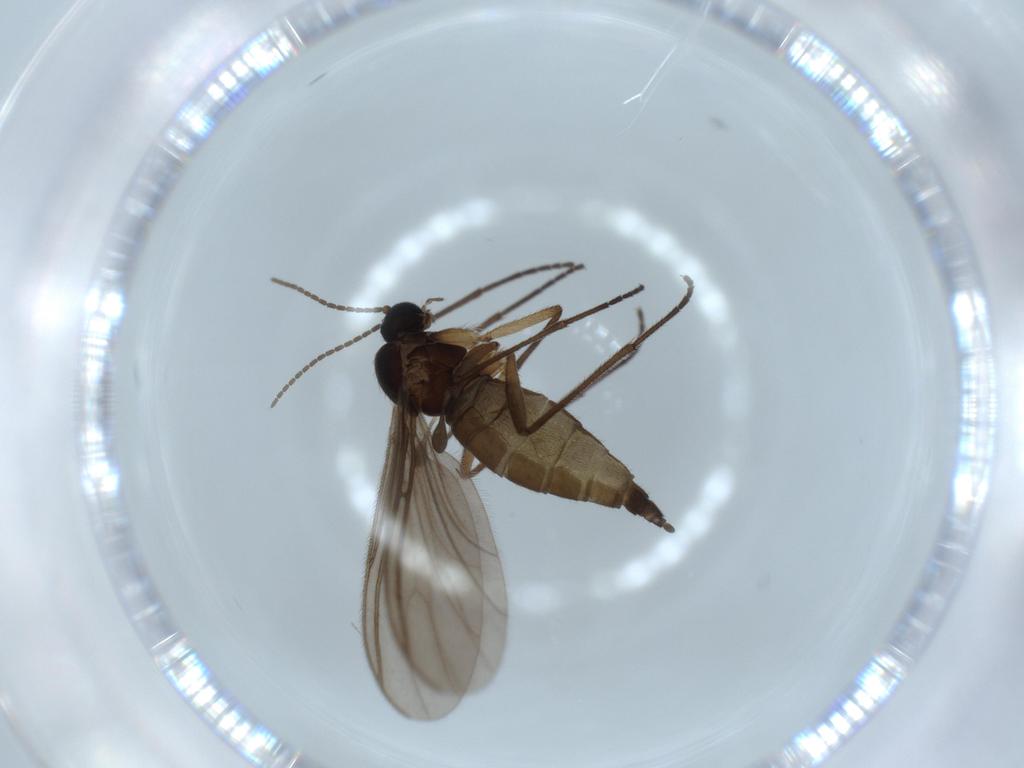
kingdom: Animalia
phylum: Arthropoda
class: Insecta
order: Diptera
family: Sciaridae
